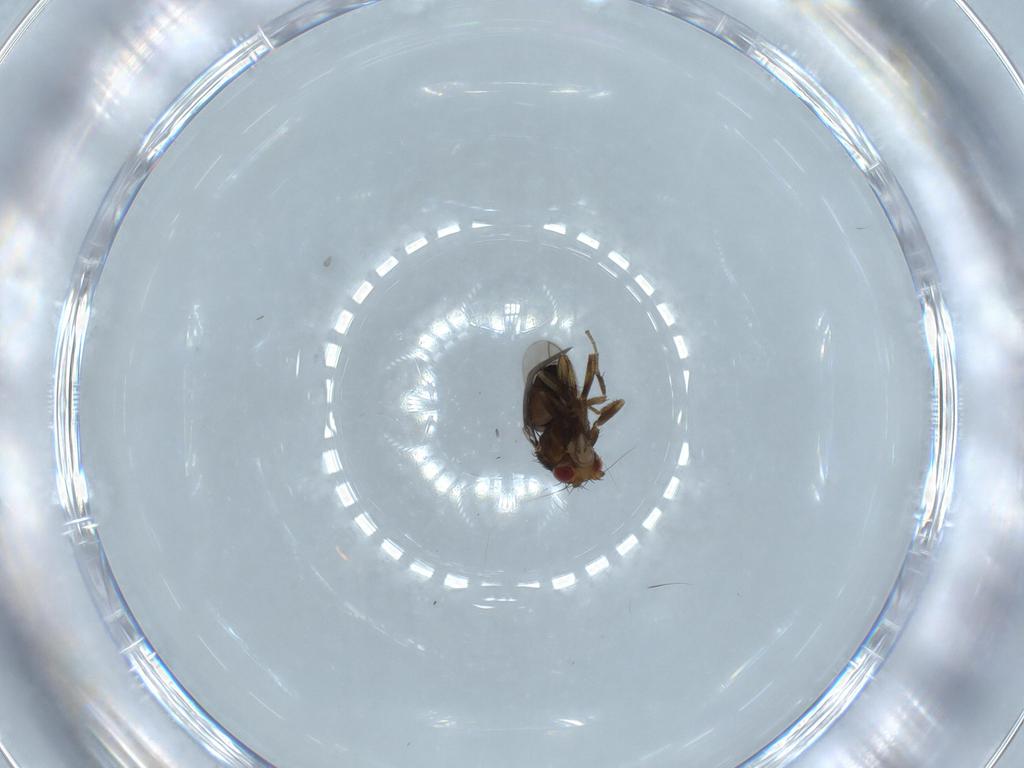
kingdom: Animalia
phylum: Arthropoda
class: Insecta
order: Diptera
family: Sphaeroceridae
